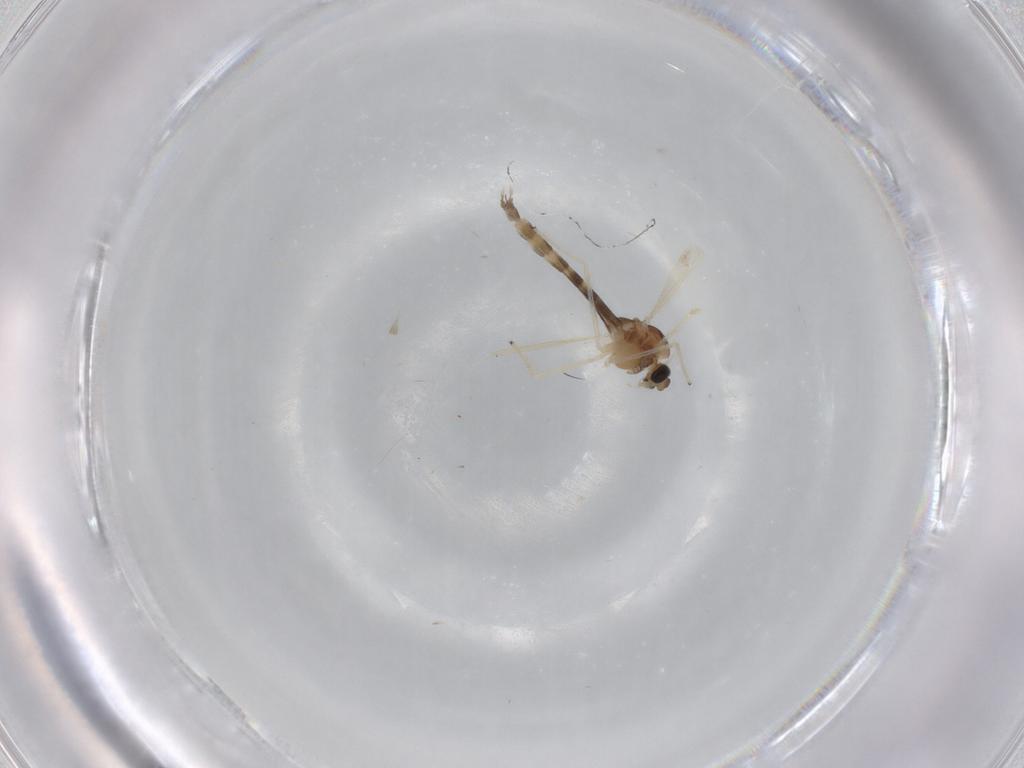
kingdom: Animalia
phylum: Arthropoda
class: Insecta
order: Diptera
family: Chironomidae
